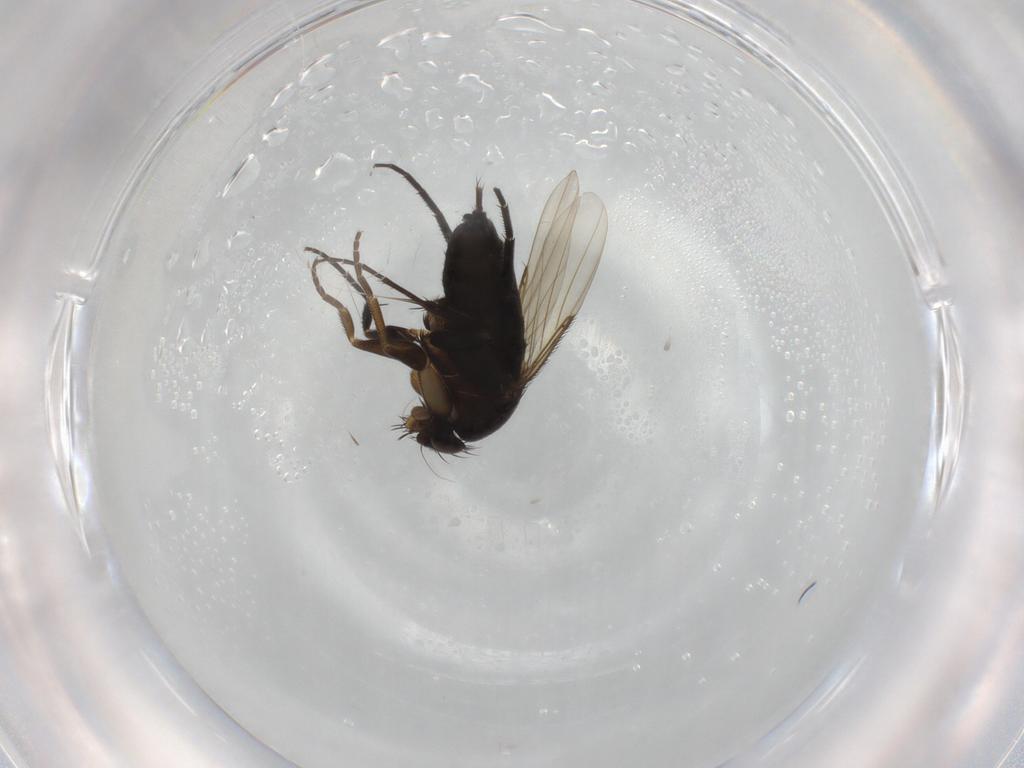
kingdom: Animalia
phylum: Arthropoda
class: Insecta
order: Diptera
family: Phoridae
